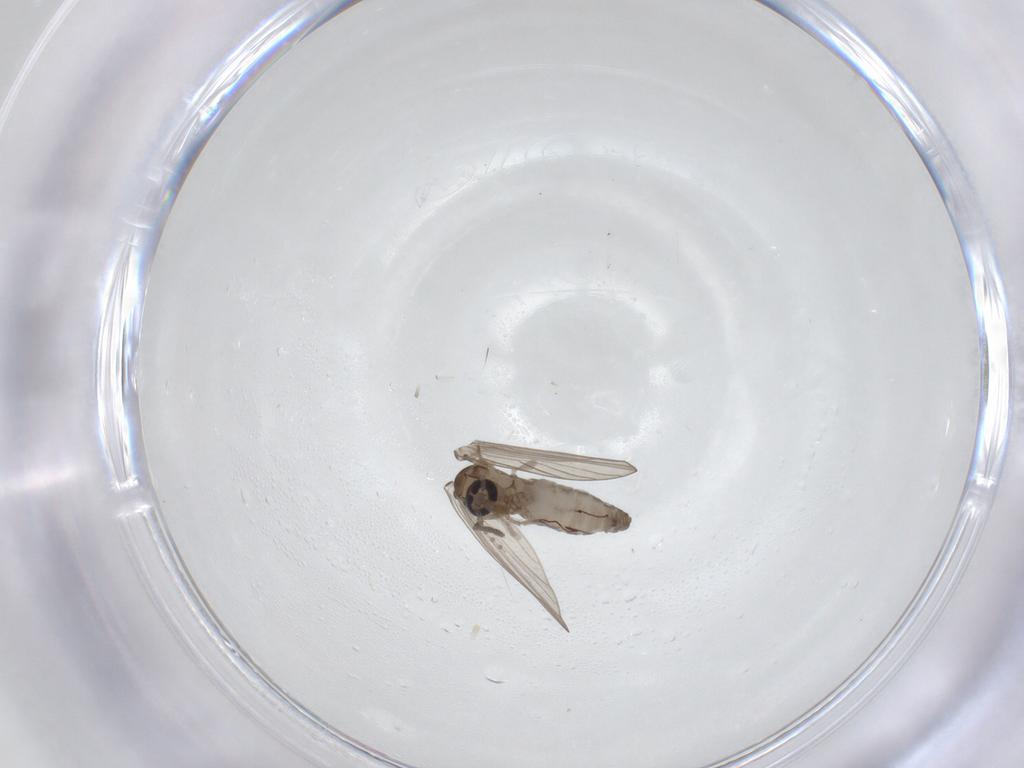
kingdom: Animalia
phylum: Arthropoda
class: Insecta
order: Diptera
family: Psychodidae
